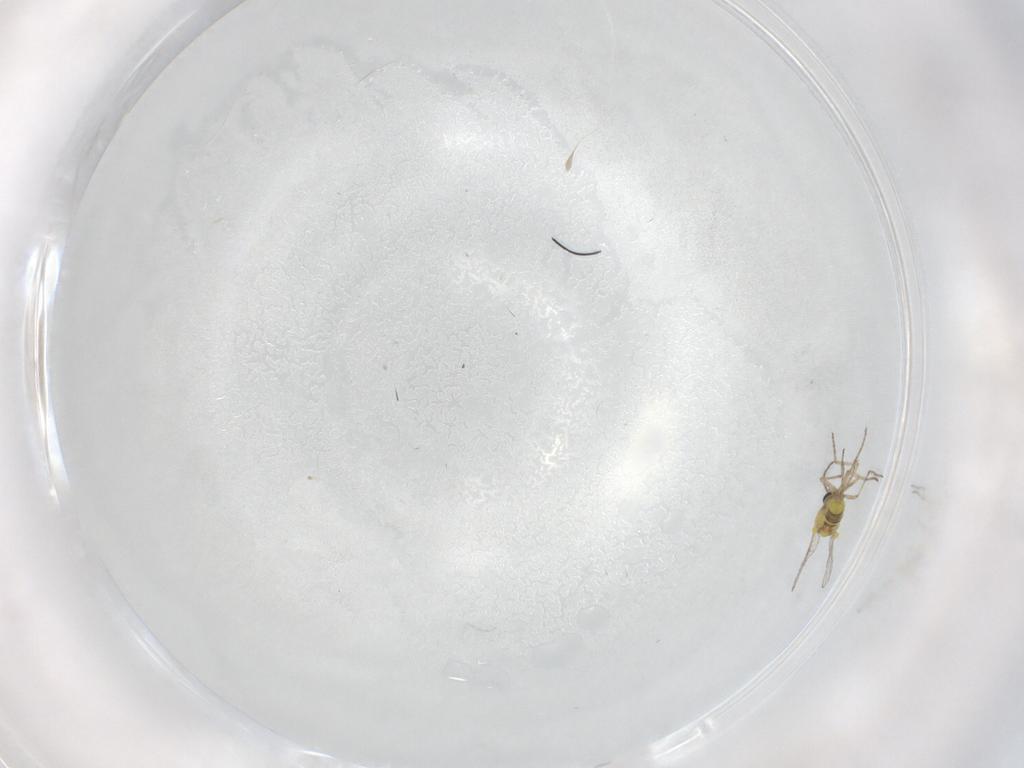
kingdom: Animalia
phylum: Arthropoda
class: Insecta
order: Diptera
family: Ceratopogonidae
